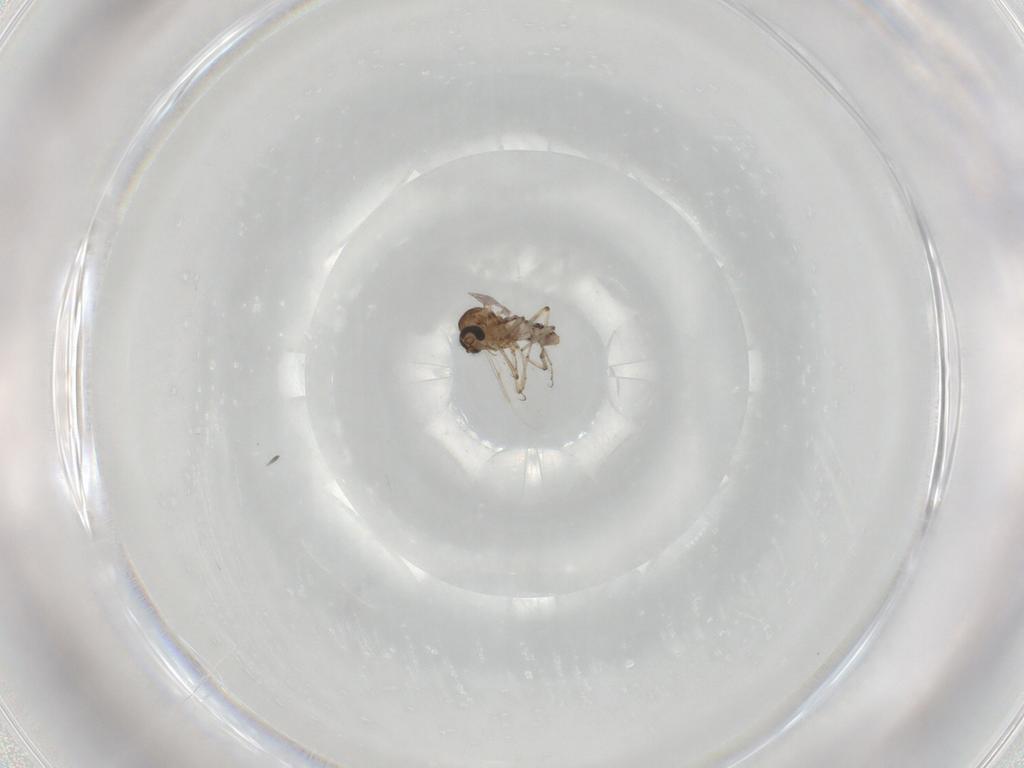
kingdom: Animalia
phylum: Arthropoda
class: Insecta
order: Diptera
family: Ceratopogonidae
